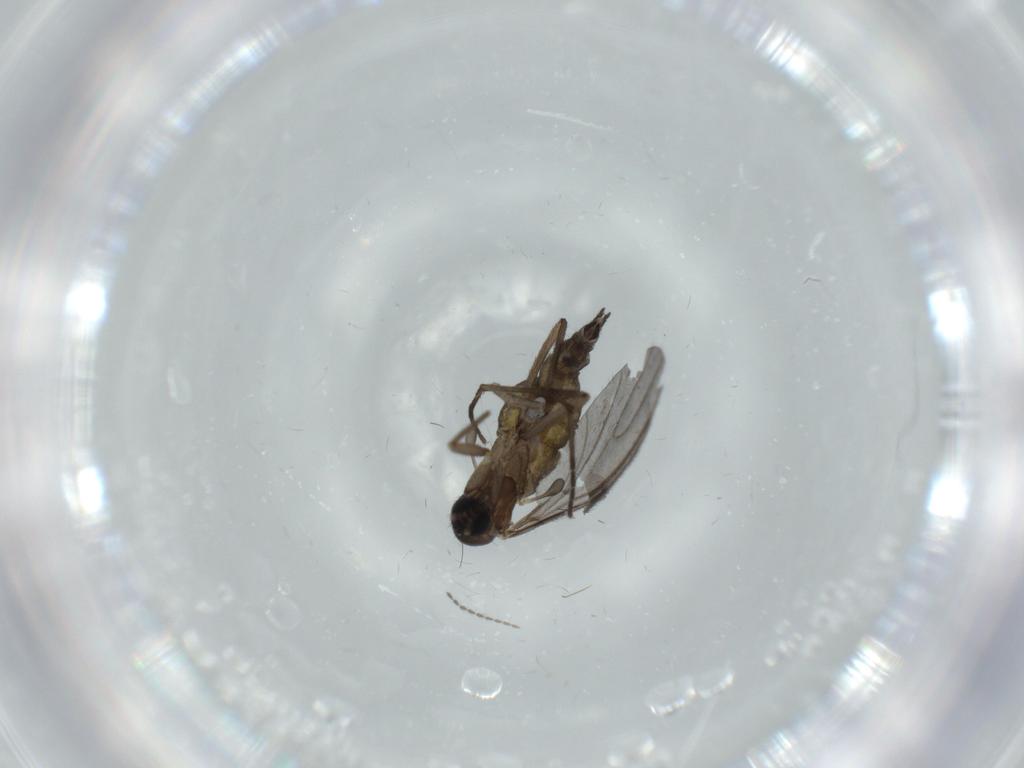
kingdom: Animalia
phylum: Arthropoda
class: Insecta
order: Diptera
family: Sciaridae
